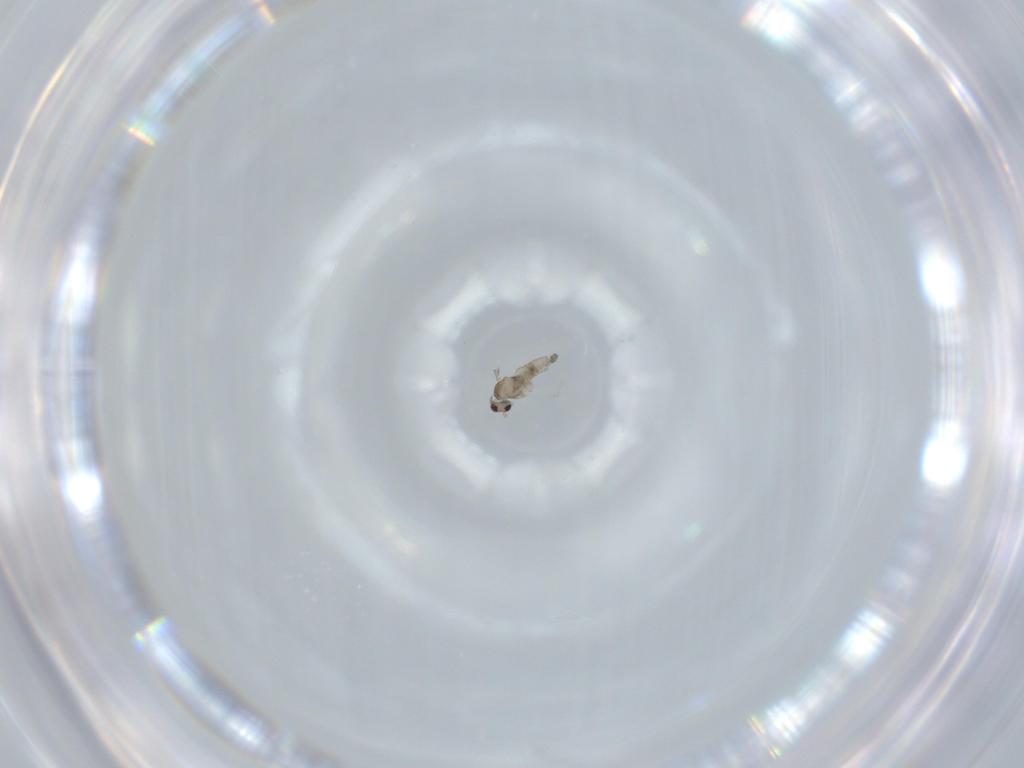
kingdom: Animalia
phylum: Arthropoda
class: Insecta
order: Diptera
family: Cecidomyiidae
